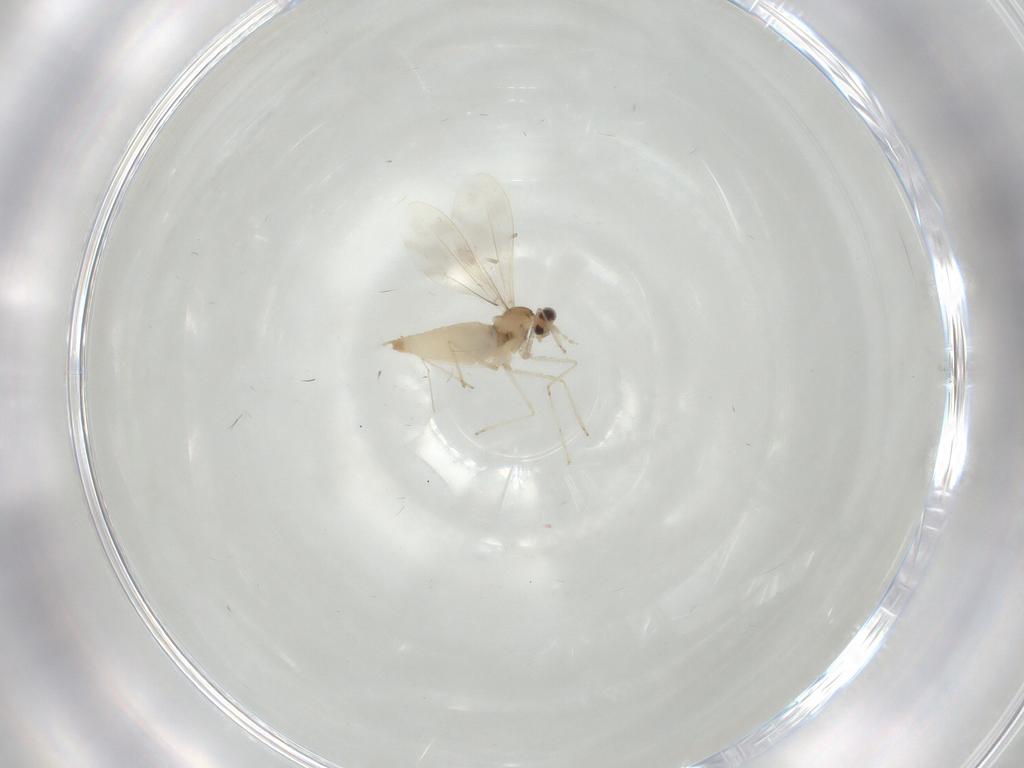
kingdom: Animalia
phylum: Arthropoda
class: Insecta
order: Diptera
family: Cecidomyiidae
